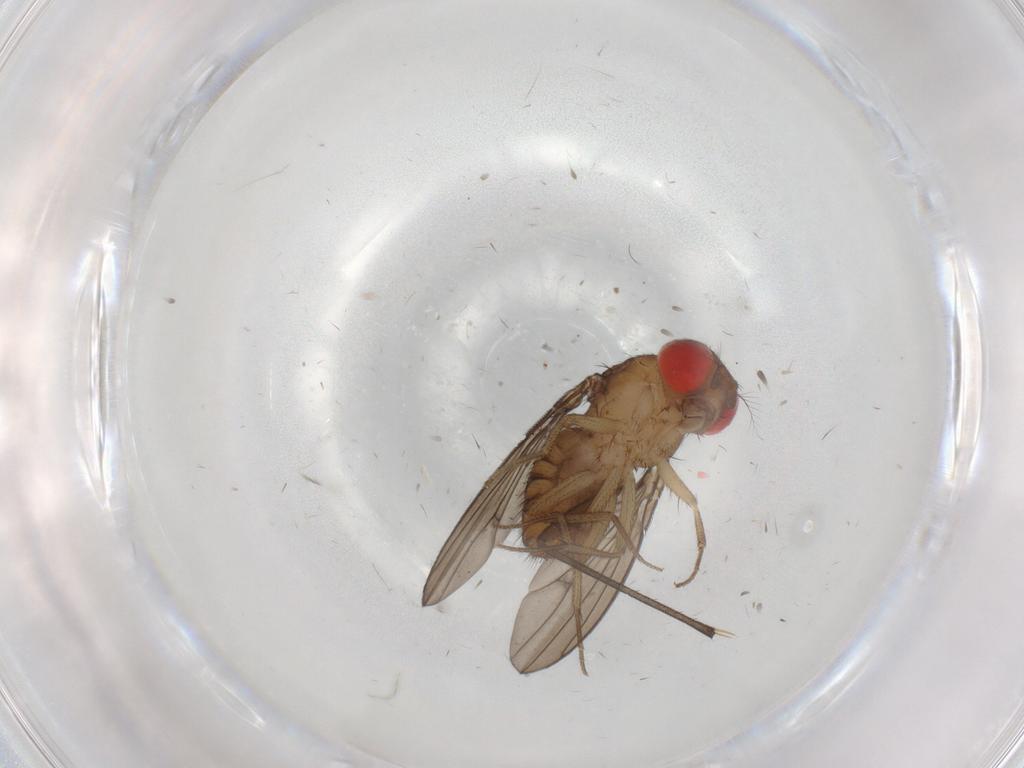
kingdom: Animalia
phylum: Arthropoda
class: Insecta
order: Diptera
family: Drosophilidae
